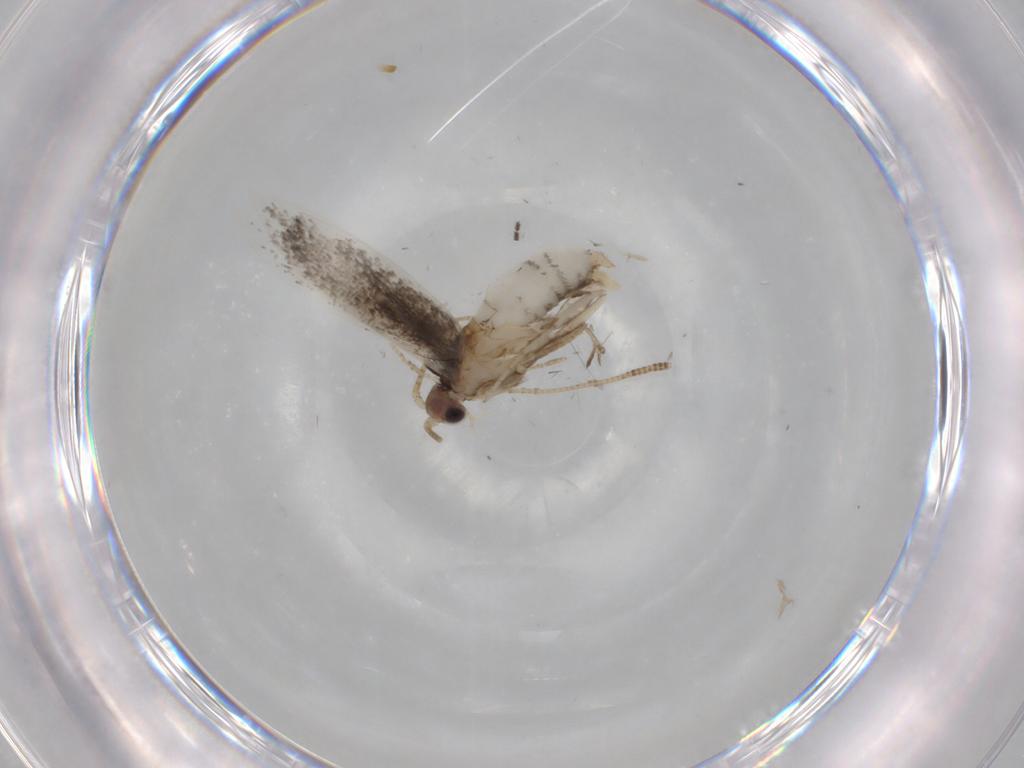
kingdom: Animalia
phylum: Arthropoda
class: Insecta
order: Lepidoptera
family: Tineidae
